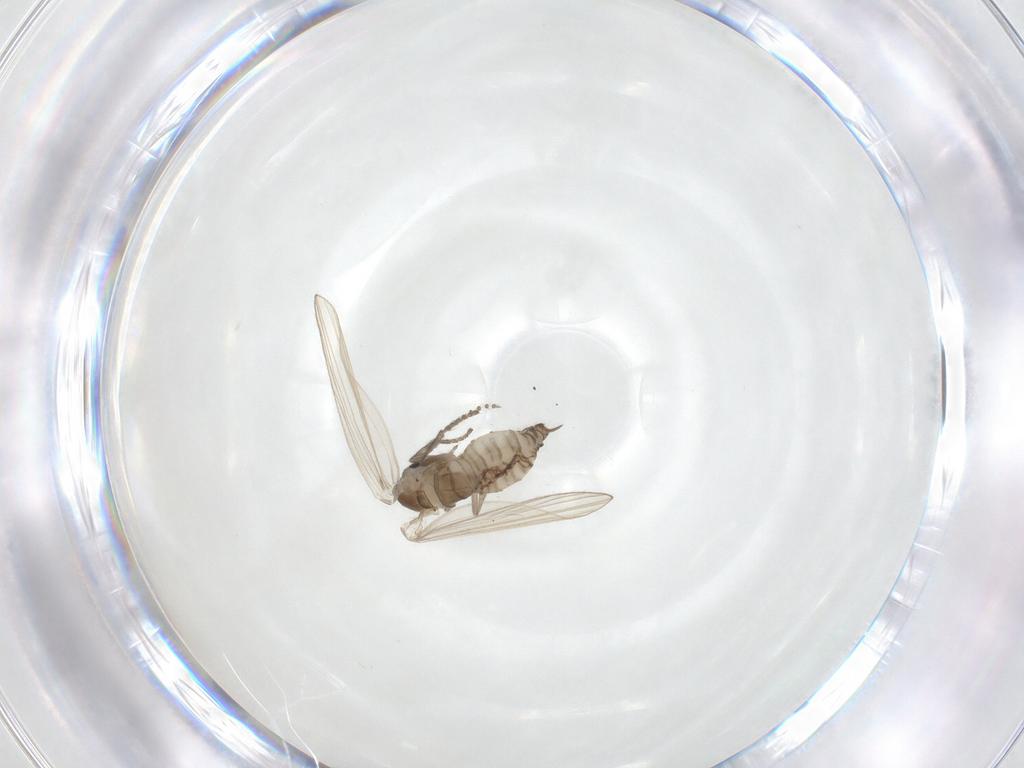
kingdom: Animalia
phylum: Arthropoda
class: Insecta
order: Diptera
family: Psychodidae
